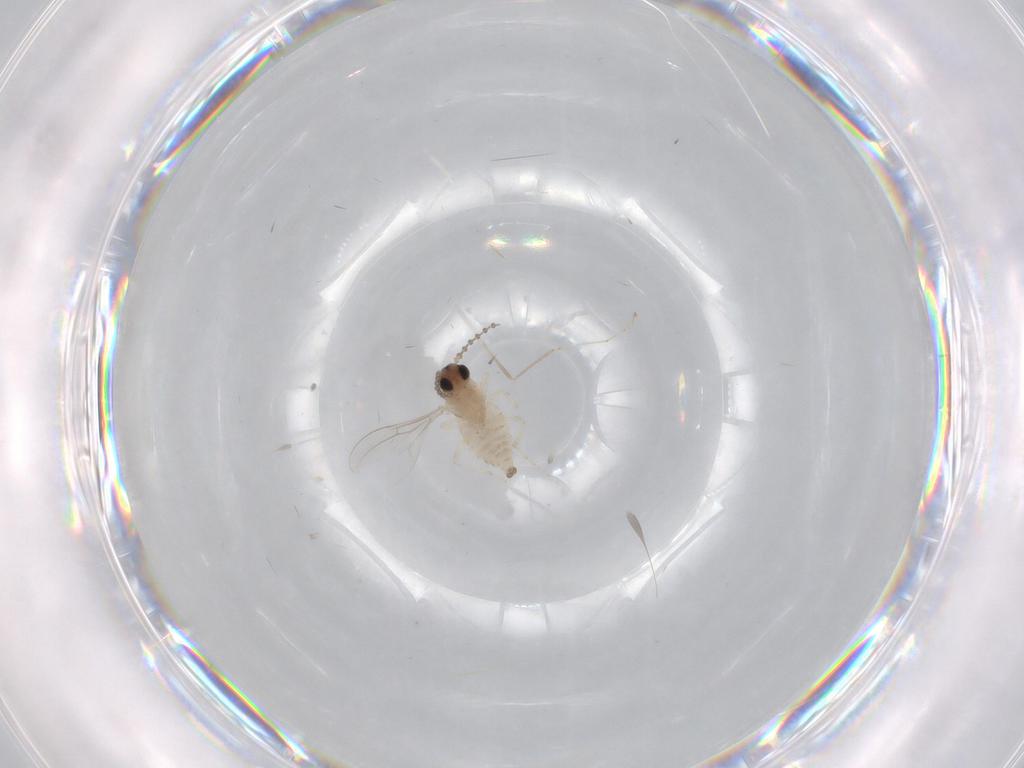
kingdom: Animalia
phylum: Arthropoda
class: Insecta
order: Diptera
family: Cecidomyiidae
